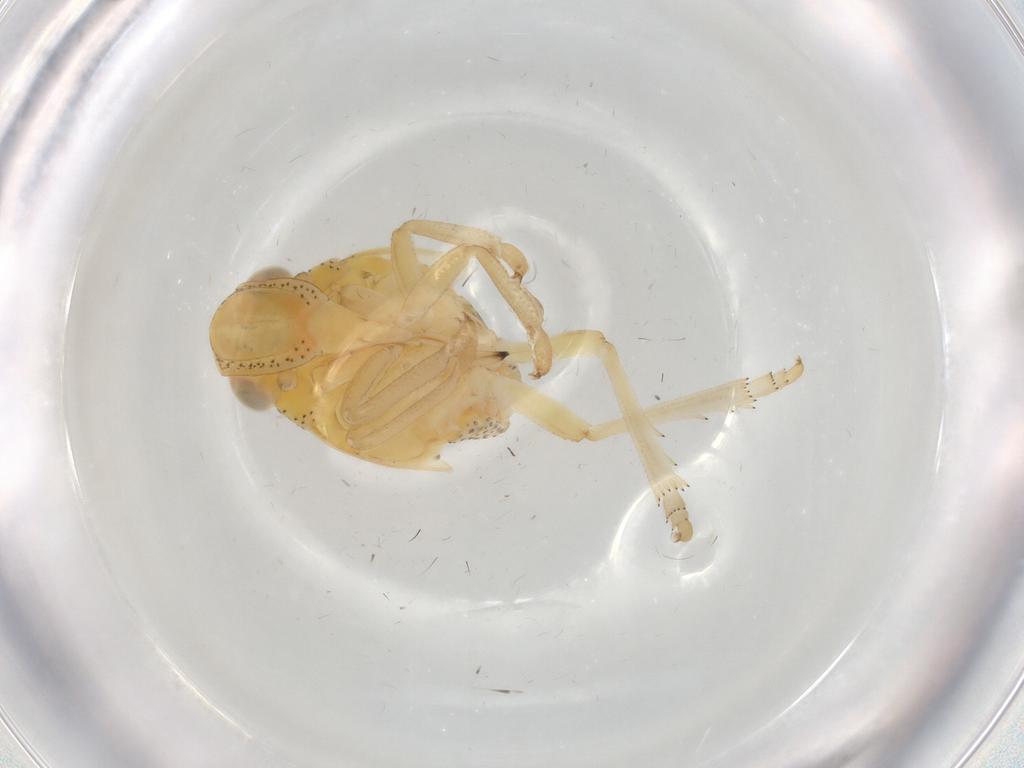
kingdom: Animalia
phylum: Arthropoda
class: Insecta
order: Hemiptera
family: Tropiduchidae
